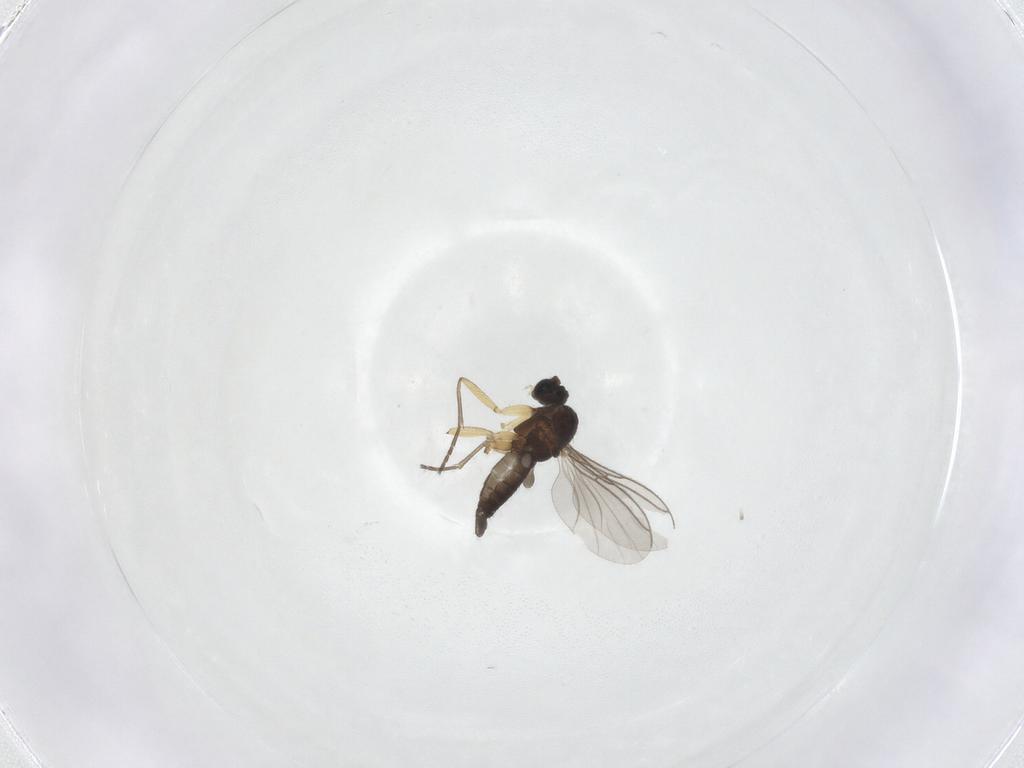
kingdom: Animalia
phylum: Arthropoda
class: Insecta
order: Diptera
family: Sciaridae
